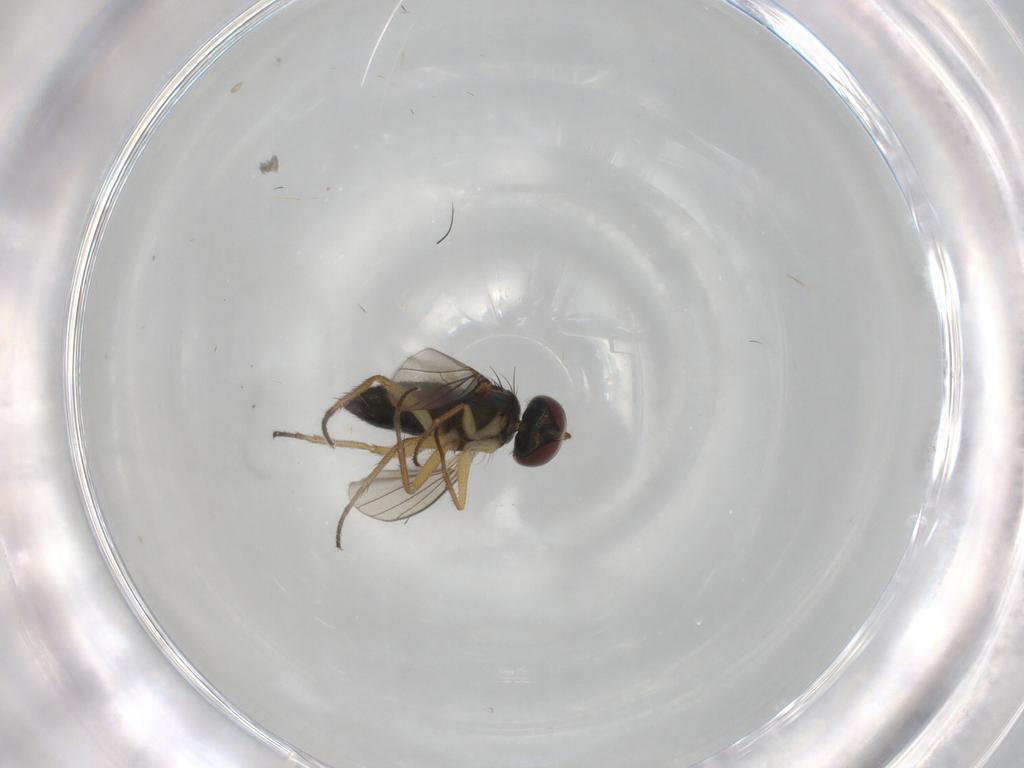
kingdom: Animalia
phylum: Arthropoda
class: Insecta
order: Diptera
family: Dolichopodidae
